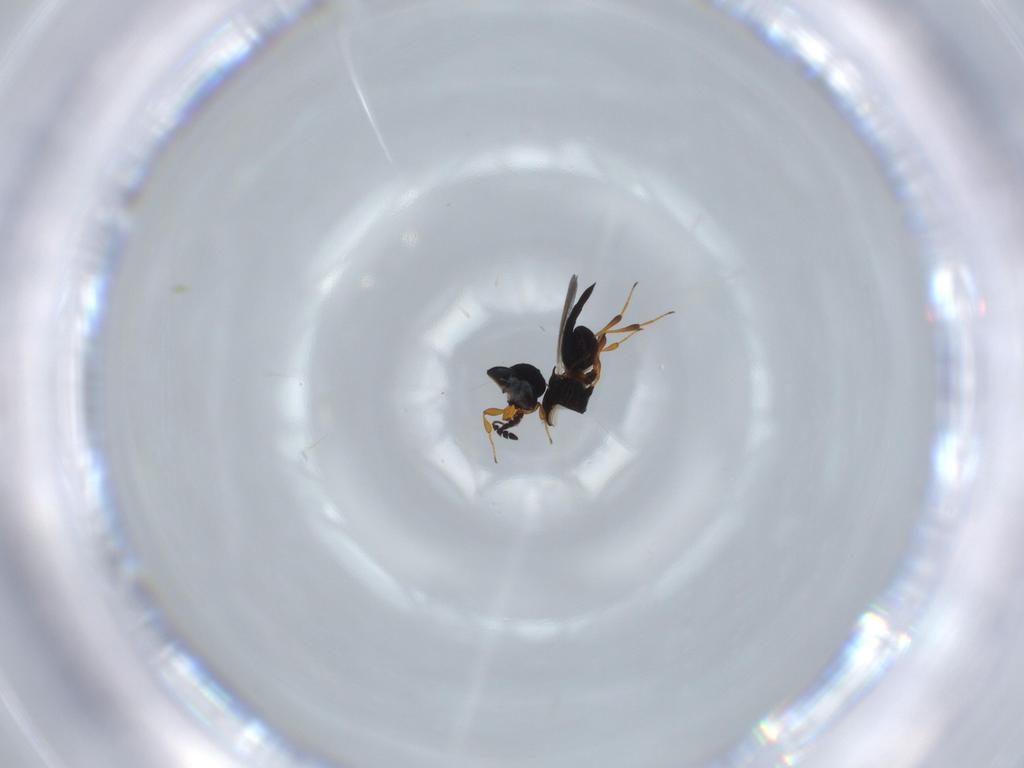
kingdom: Animalia
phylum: Arthropoda
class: Insecta
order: Hymenoptera
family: Platygastridae
